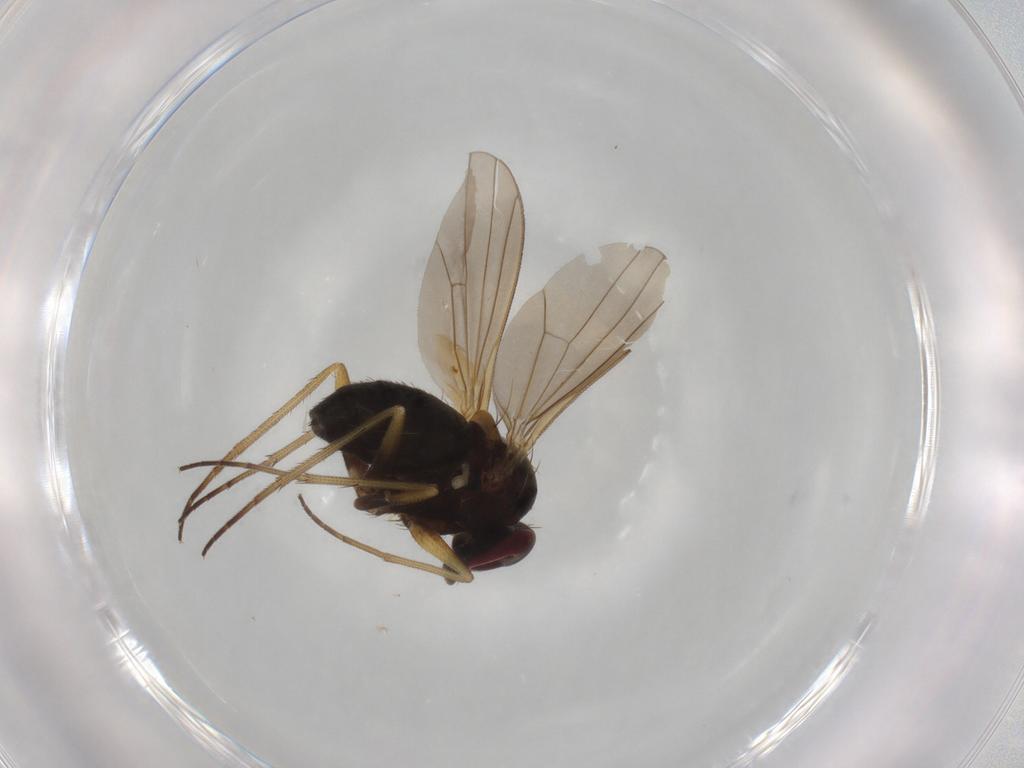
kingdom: Animalia
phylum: Arthropoda
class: Insecta
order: Diptera
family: Ceratopogonidae
